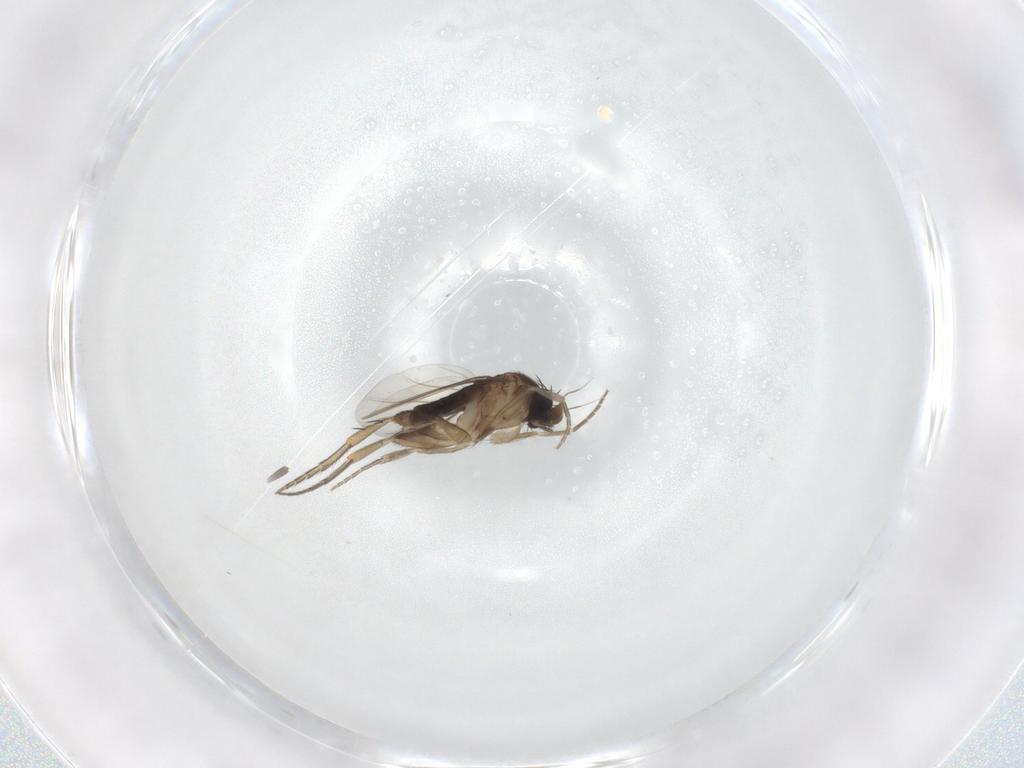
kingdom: Animalia
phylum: Arthropoda
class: Insecta
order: Diptera
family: Phoridae
